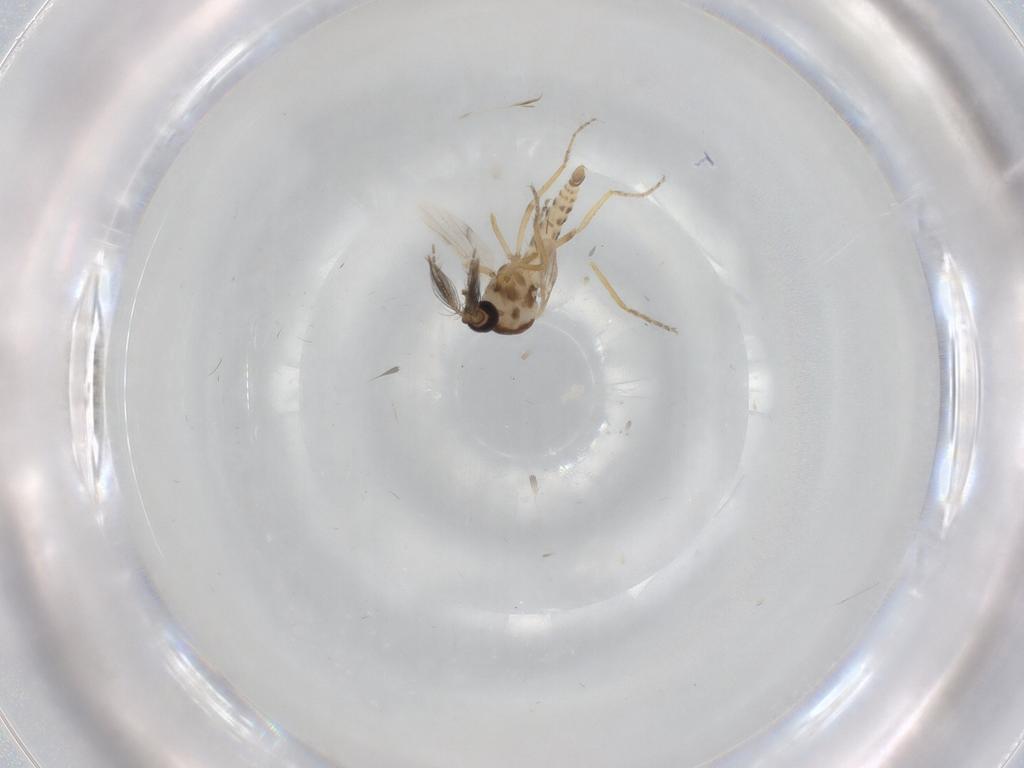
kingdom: Animalia
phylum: Arthropoda
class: Insecta
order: Diptera
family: Ceratopogonidae
